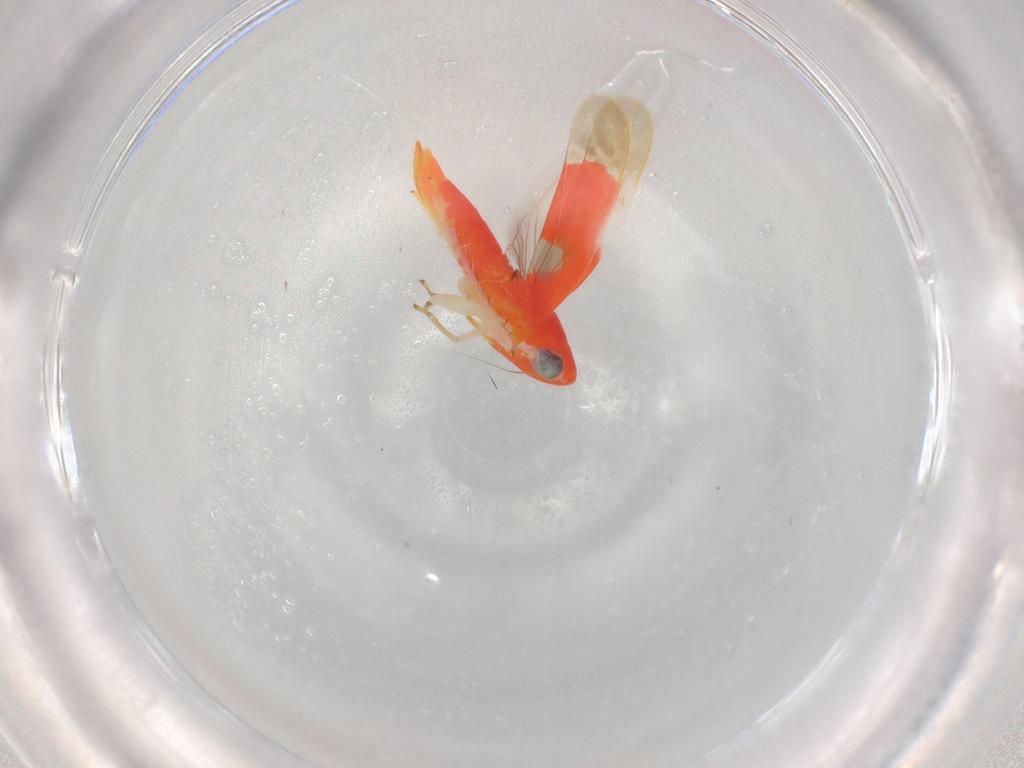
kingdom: Animalia
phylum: Arthropoda
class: Insecta
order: Hemiptera
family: Cicadellidae
